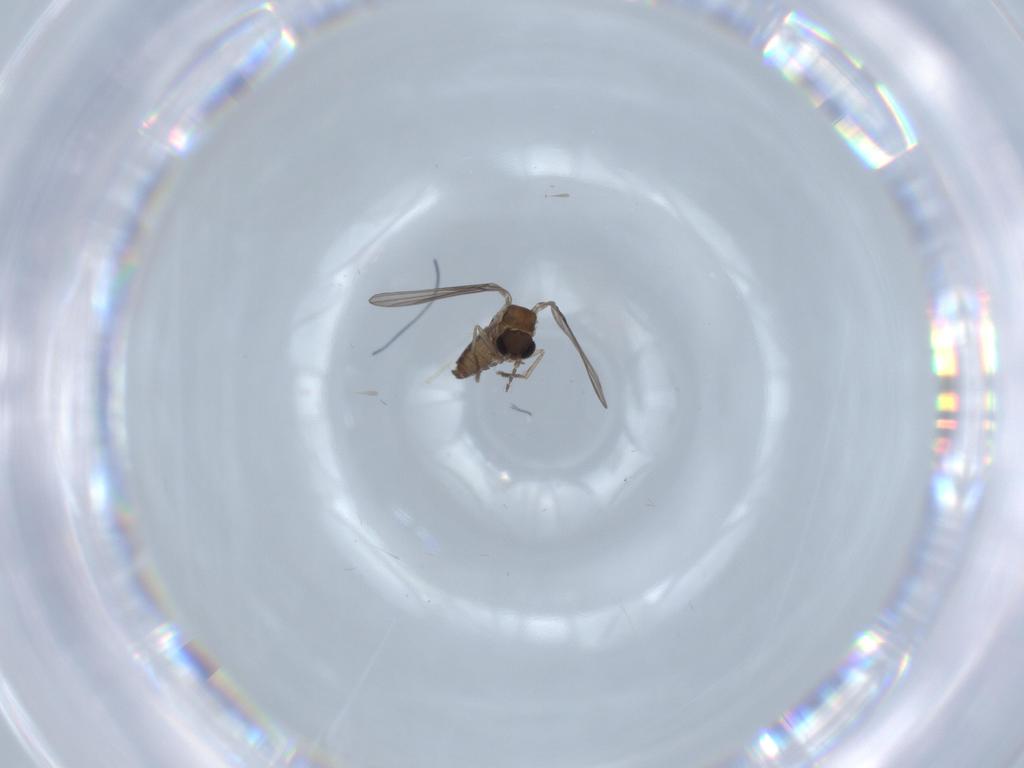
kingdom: Animalia
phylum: Arthropoda
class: Insecta
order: Diptera
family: Psychodidae
